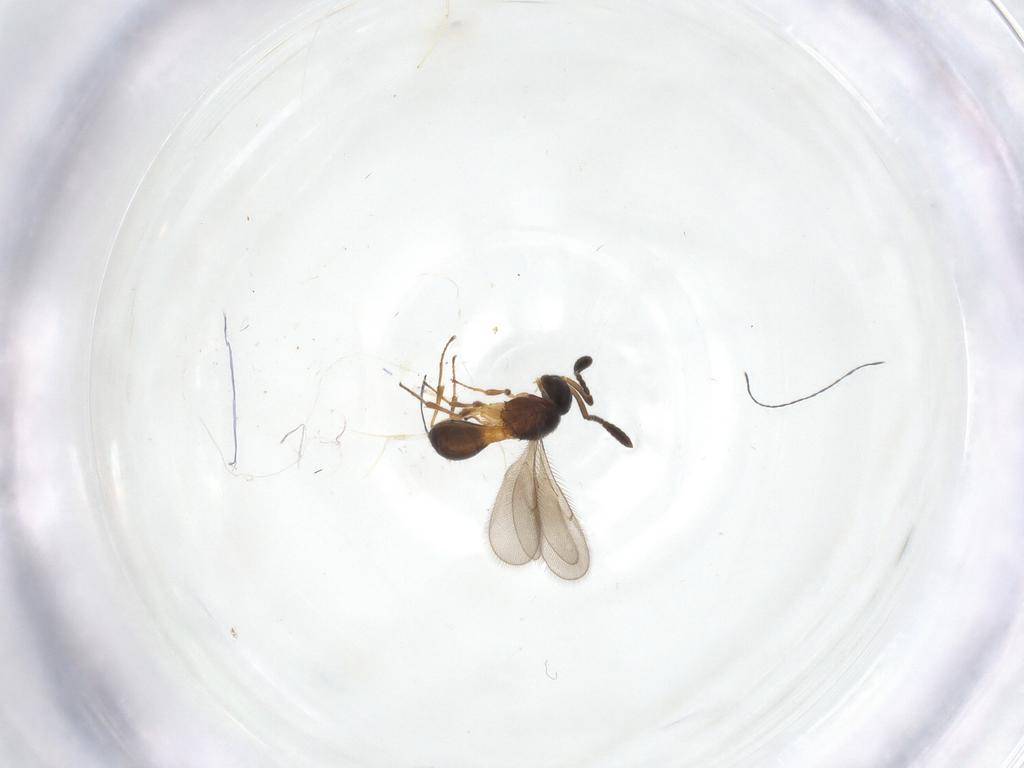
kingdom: Animalia
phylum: Arthropoda
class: Insecta
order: Hymenoptera
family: Scelionidae
